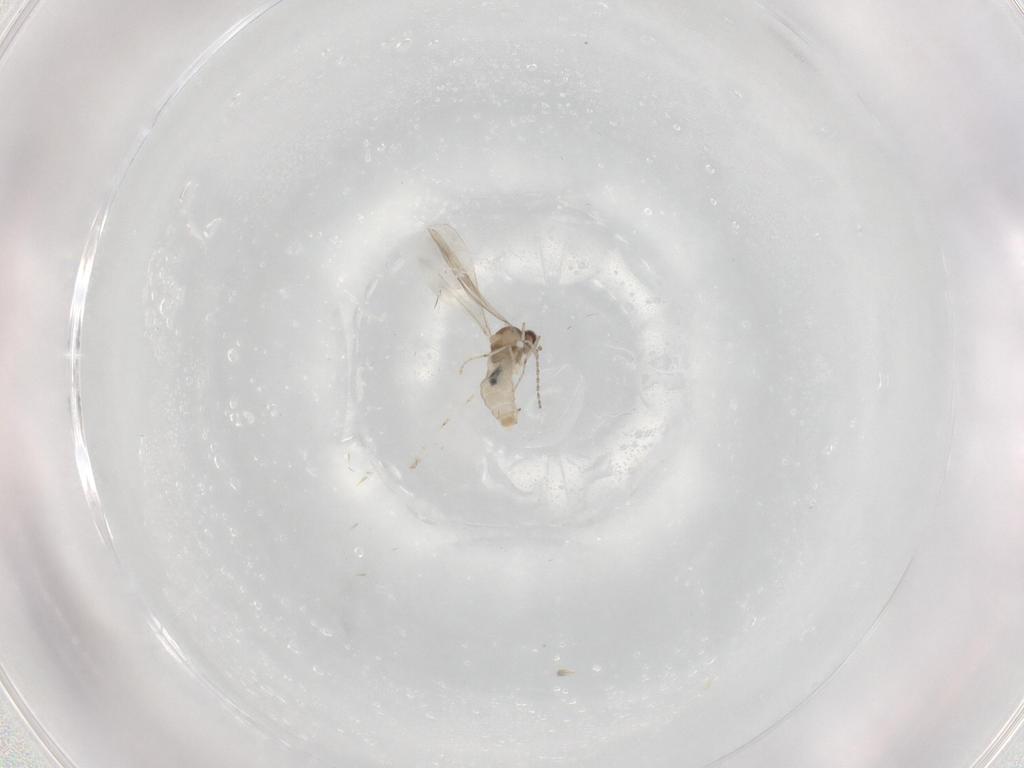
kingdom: Animalia
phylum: Arthropoda
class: Insecta
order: Diptera
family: Cecidomyiidae
